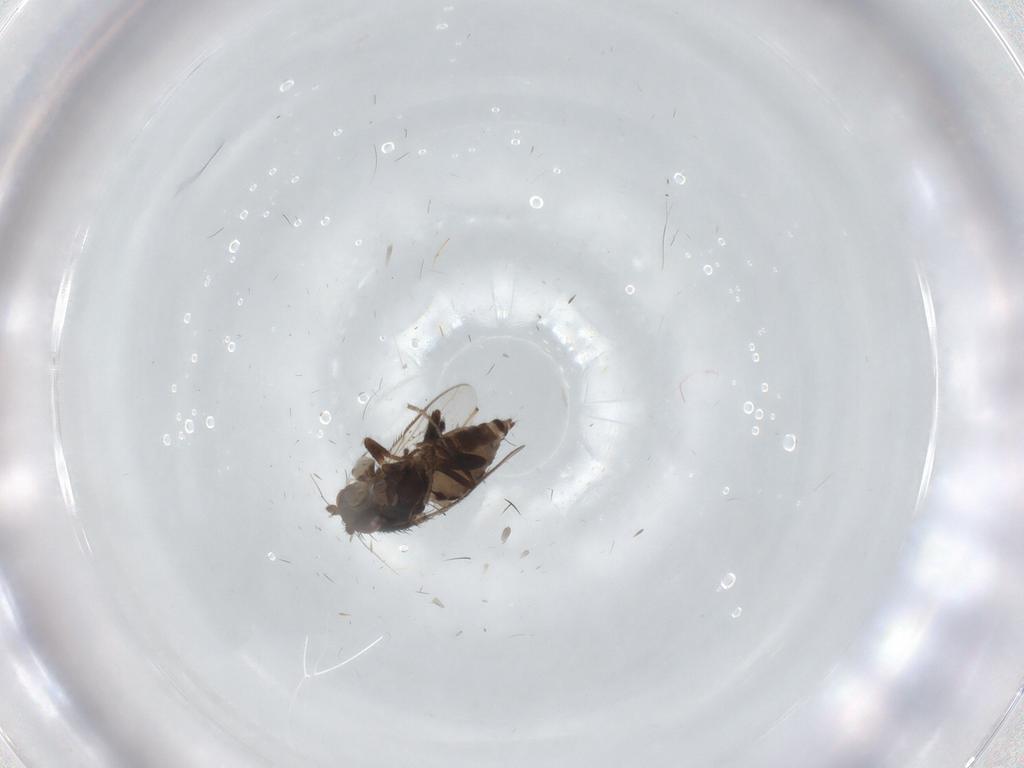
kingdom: Animalia
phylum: Arthropoda
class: Insecta
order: Diptera
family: Sphaeroceridae
